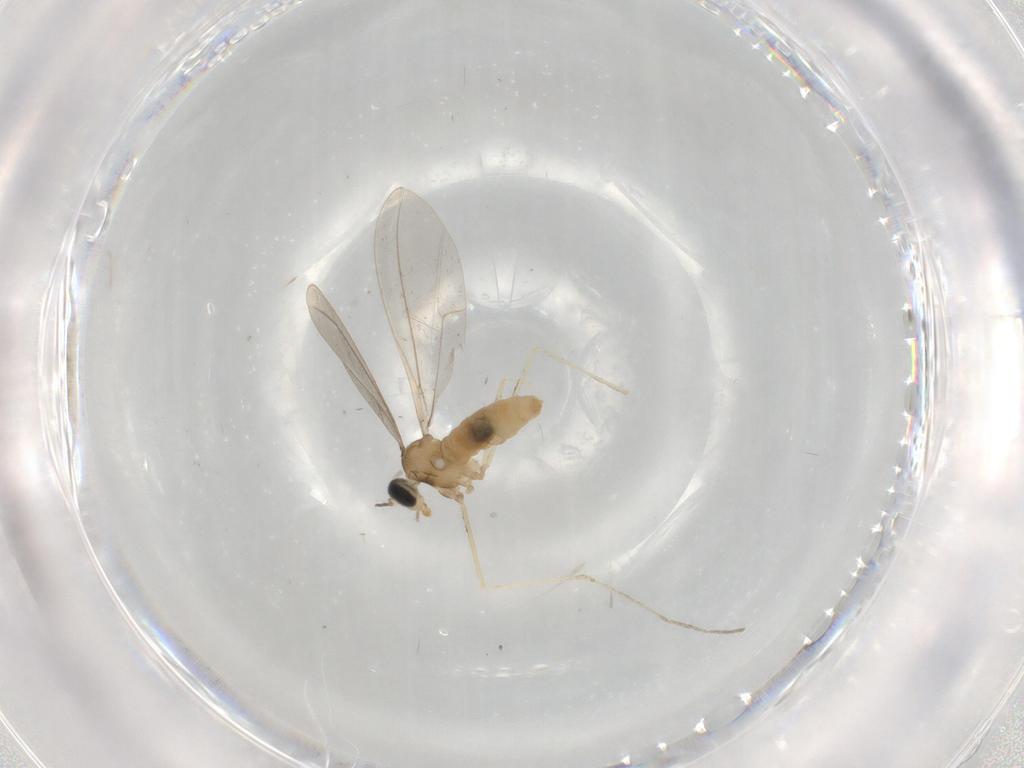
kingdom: Animalia
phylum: Arthropoda
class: Insecta
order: Diptera
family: Cecidomyiidae
